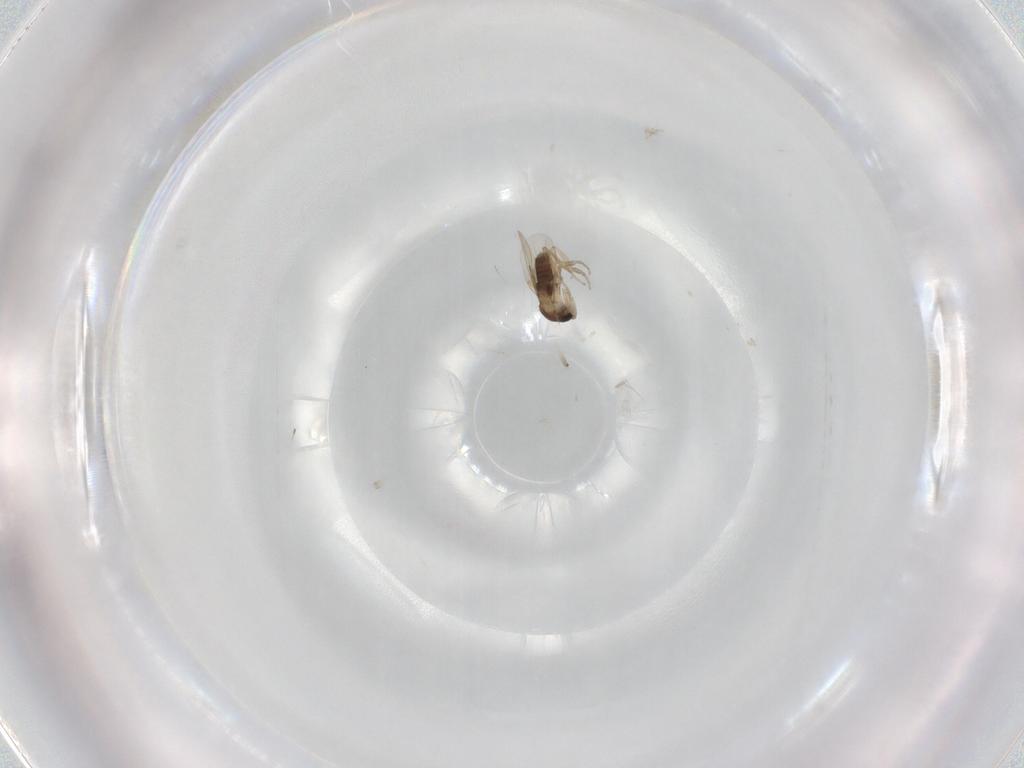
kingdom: Animalia
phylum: Arthropoda
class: Insecta
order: Diptera
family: Phoridae
